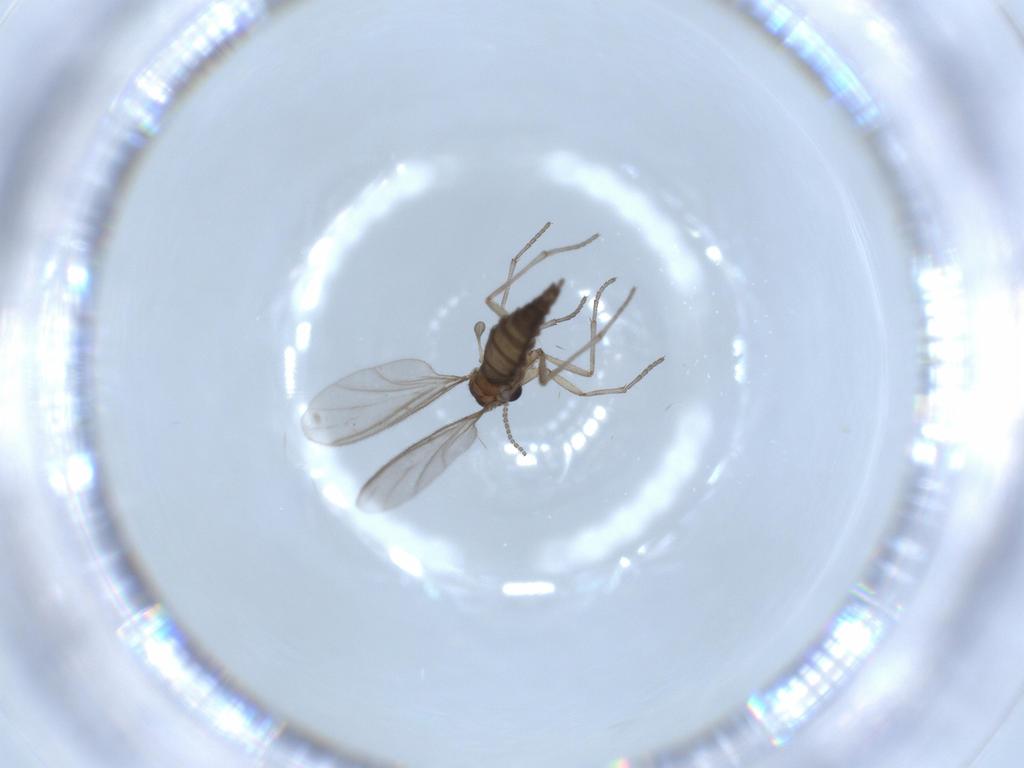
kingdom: Animalia
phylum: Arthropoda
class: Insecta
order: Diptera
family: Sciaridae
